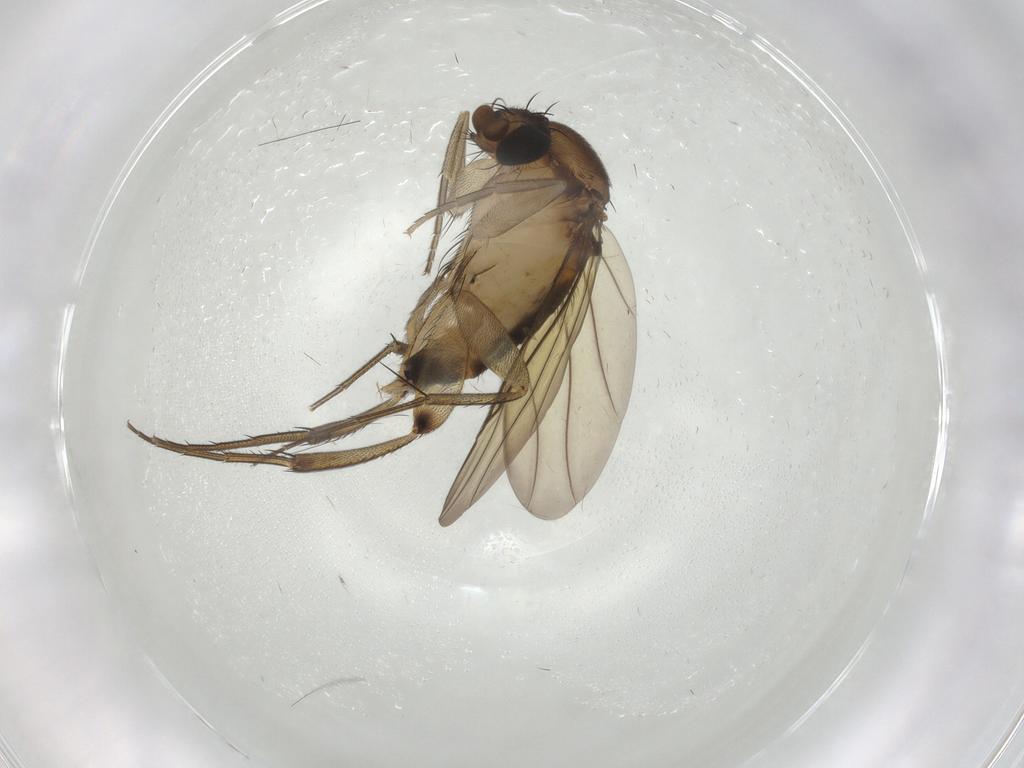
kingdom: Animalia
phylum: Arthropoda
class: Insecta
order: Diptera
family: Phoridae
